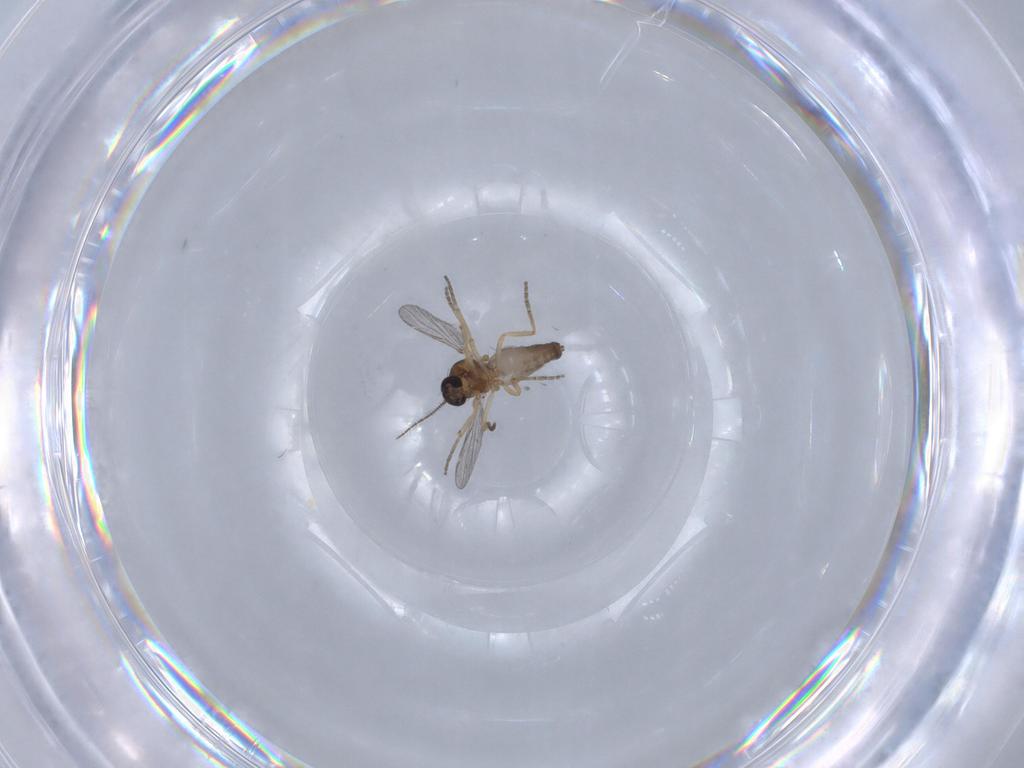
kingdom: Animalia
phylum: Arthropoda
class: Insecta
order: Diptera
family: Ceratopogonidae
